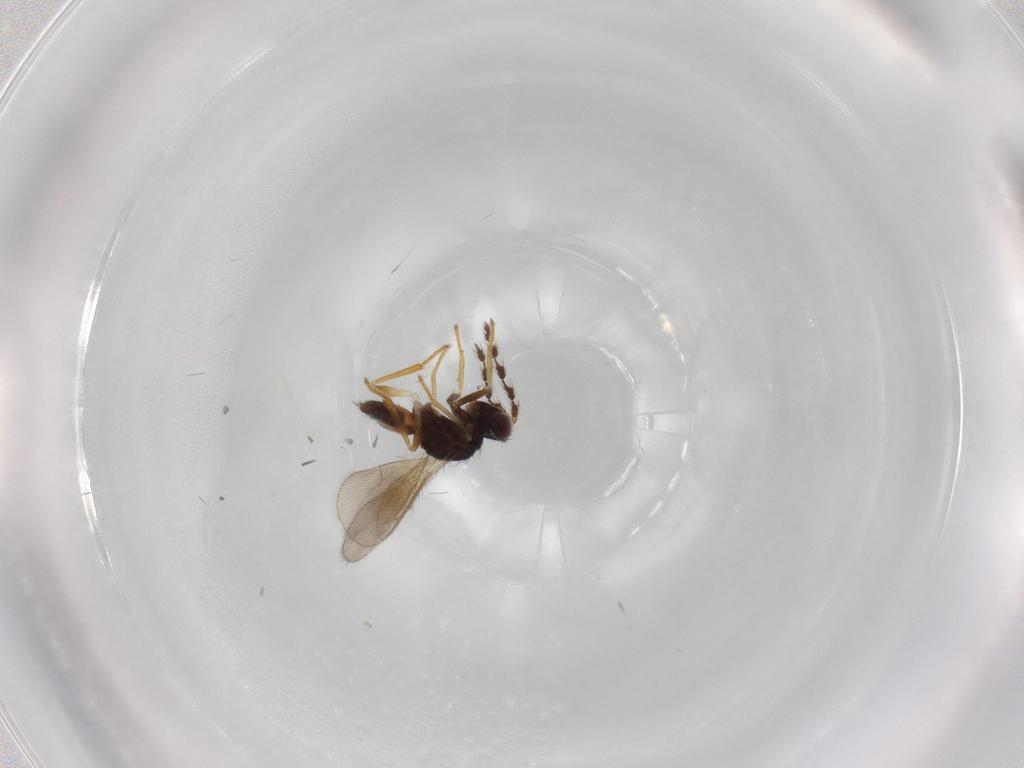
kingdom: Animalia
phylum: Arthropoda
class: Insecta
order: Hymenoptera
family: Eulophidae
